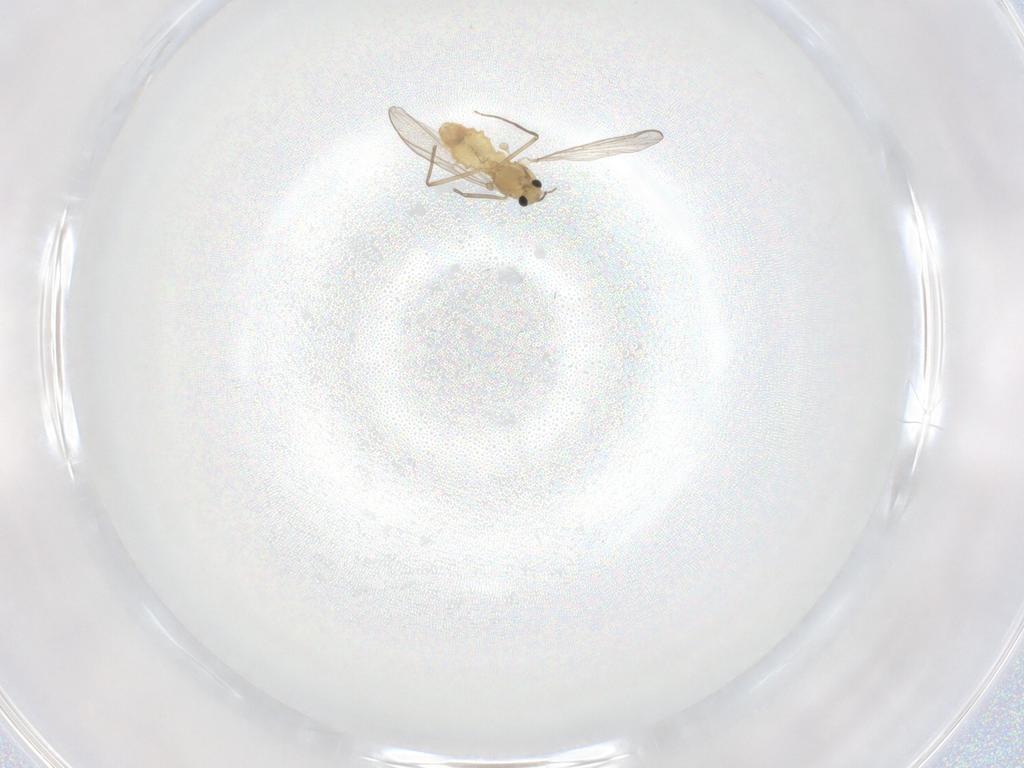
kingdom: Animalia
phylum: Arthropoda
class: Insecta
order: Diptera
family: Chironomidae
